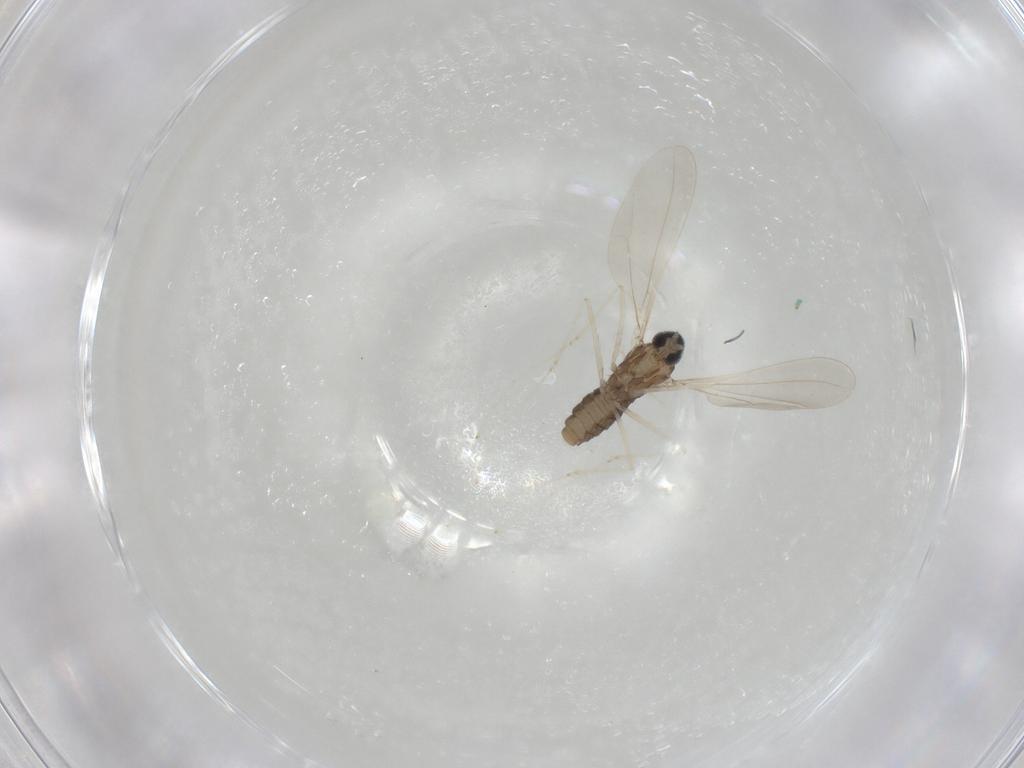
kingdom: Animalia
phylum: Arthropoda
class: Insecta
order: Diptera
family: Cecidomyiidae
